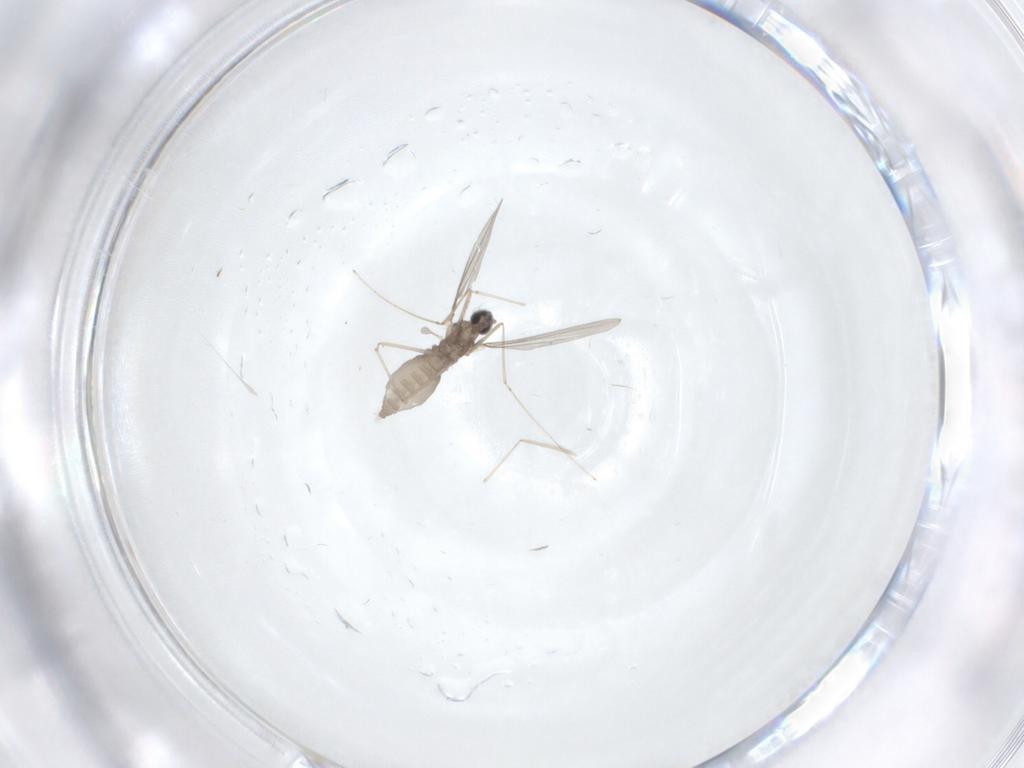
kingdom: Animalia
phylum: Arthropoda
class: Insecta
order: Diptera
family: Cecidomyiidae
